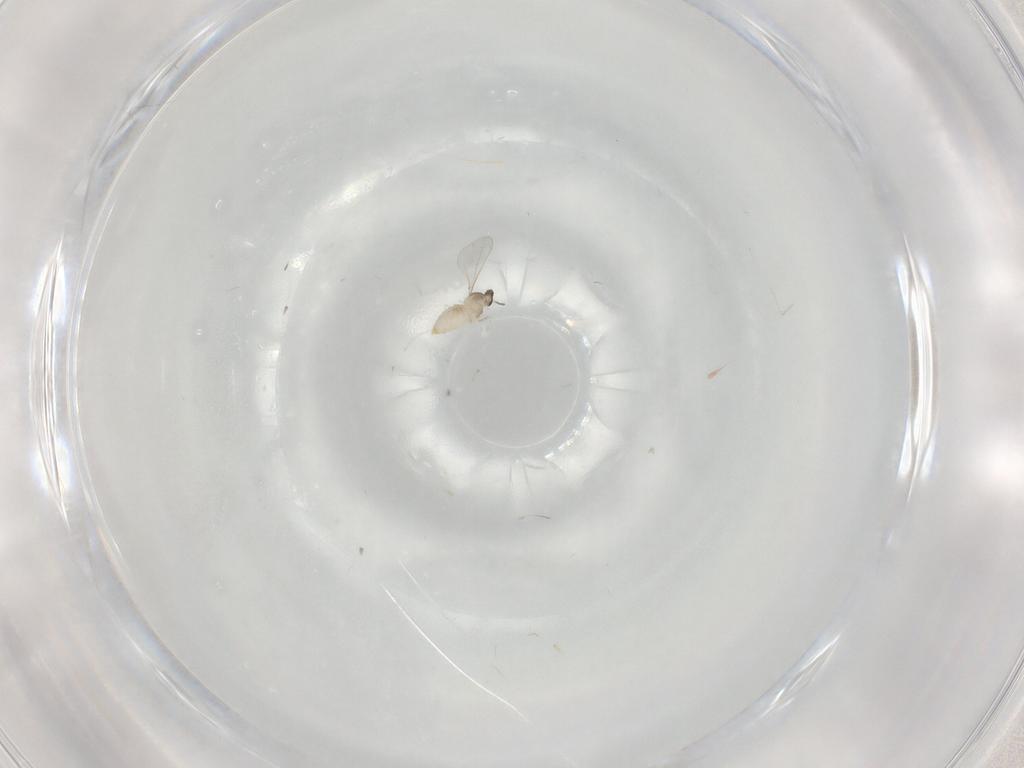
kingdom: Animalia
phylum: Arthropoda
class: Insecta
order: Diptera
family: Cecidomyiidae
